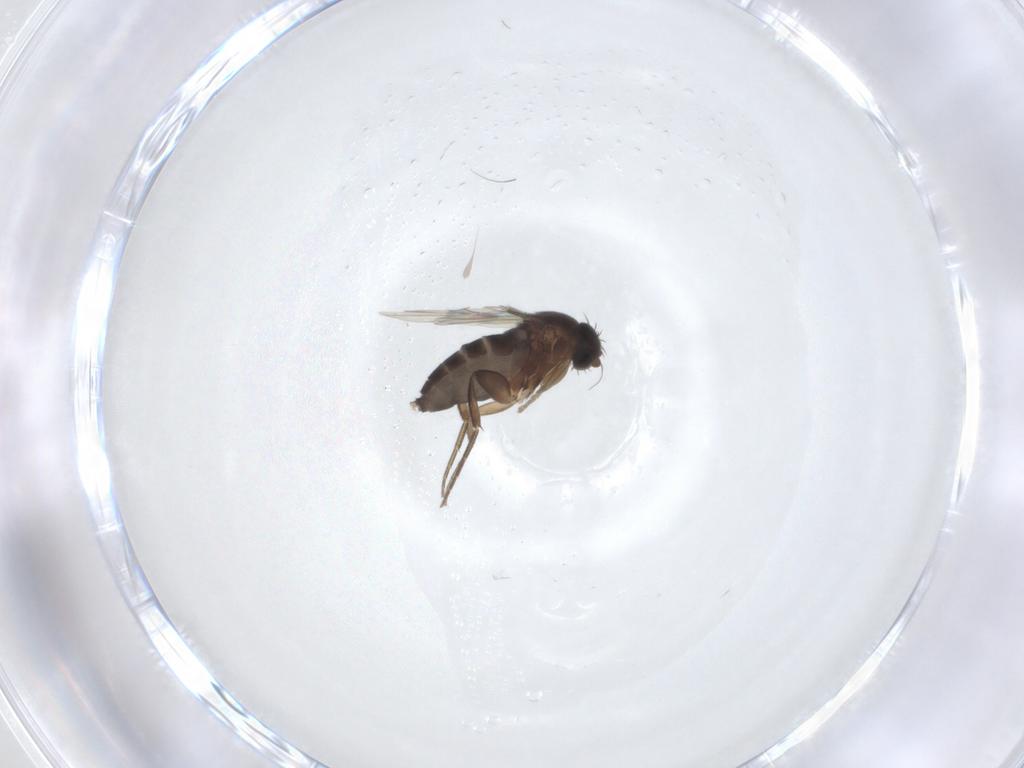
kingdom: Animalia
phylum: Arthropoda
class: Insecta
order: Diptera
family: Phoridae
